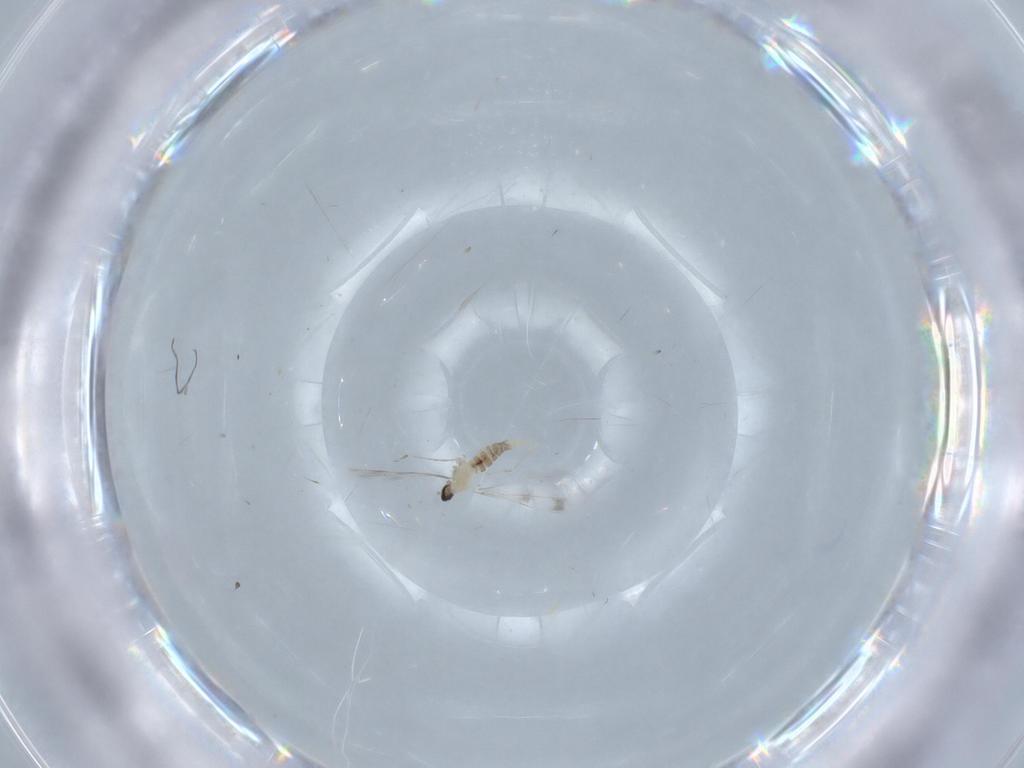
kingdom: Animalia
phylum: Arthropoda
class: Insecta
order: Diptera
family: Cecidomyiidae
